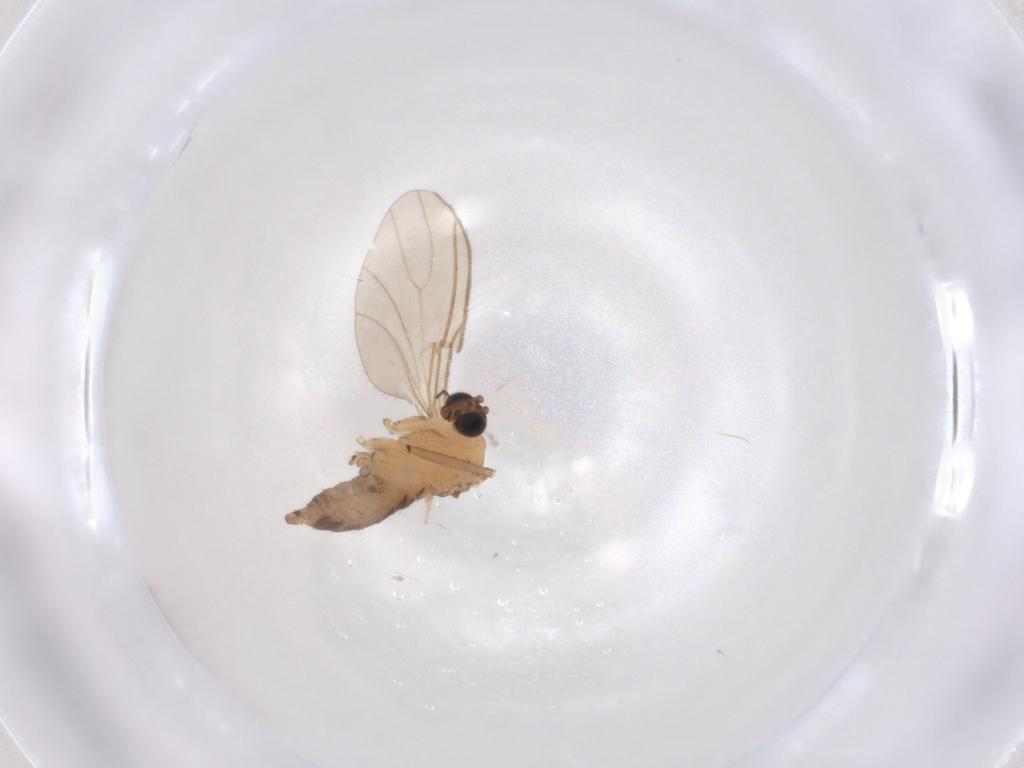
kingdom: Animalia
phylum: Arthropoda
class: Insecta
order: Diptera
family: Sciaridae
